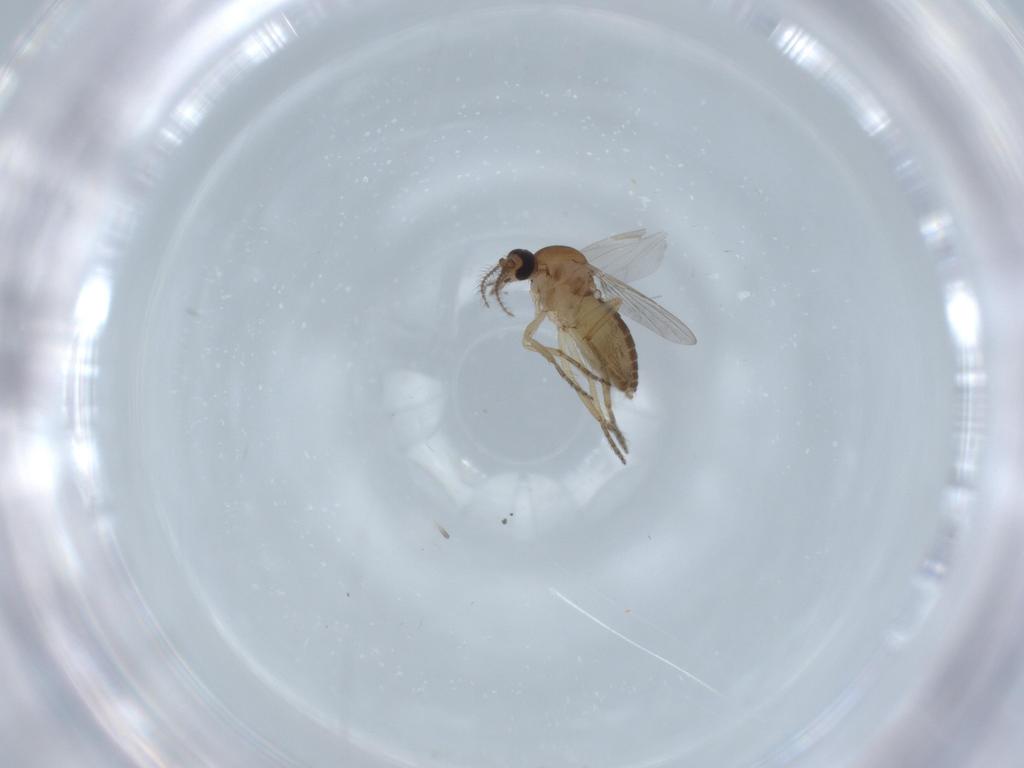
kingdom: Animalia
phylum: Arthropoda
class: Insecta
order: Diptera
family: Ceratopogonidae
